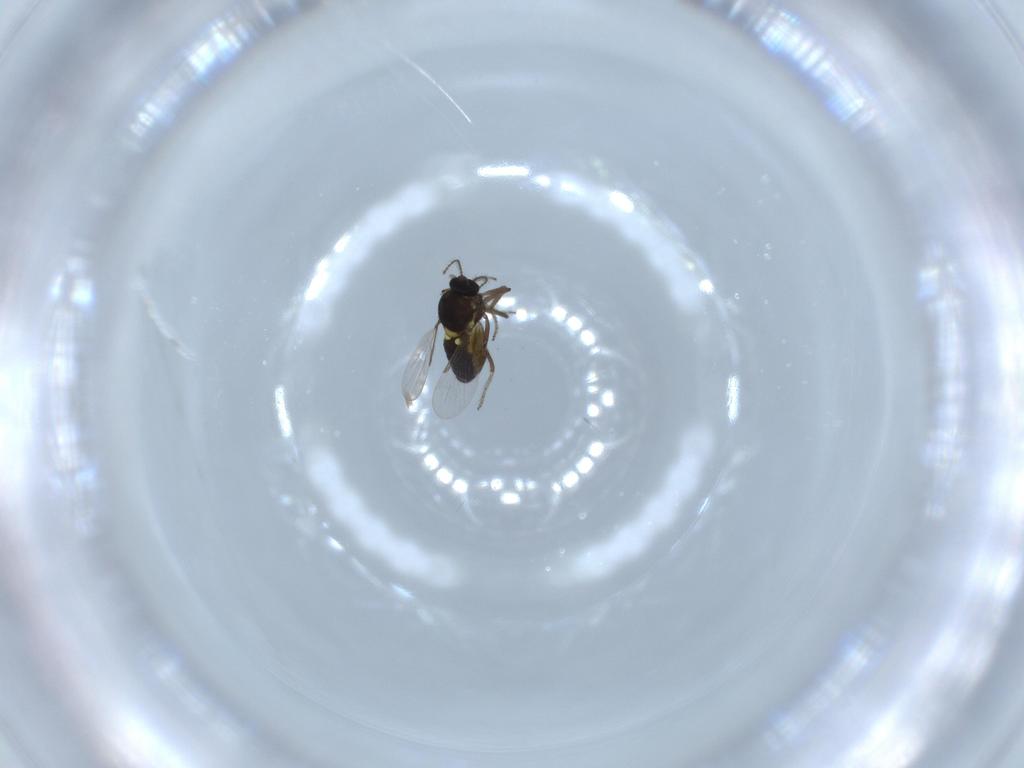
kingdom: Animalia
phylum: Arthropoda
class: Insecta
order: Diptera
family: Ceratopogonidae
